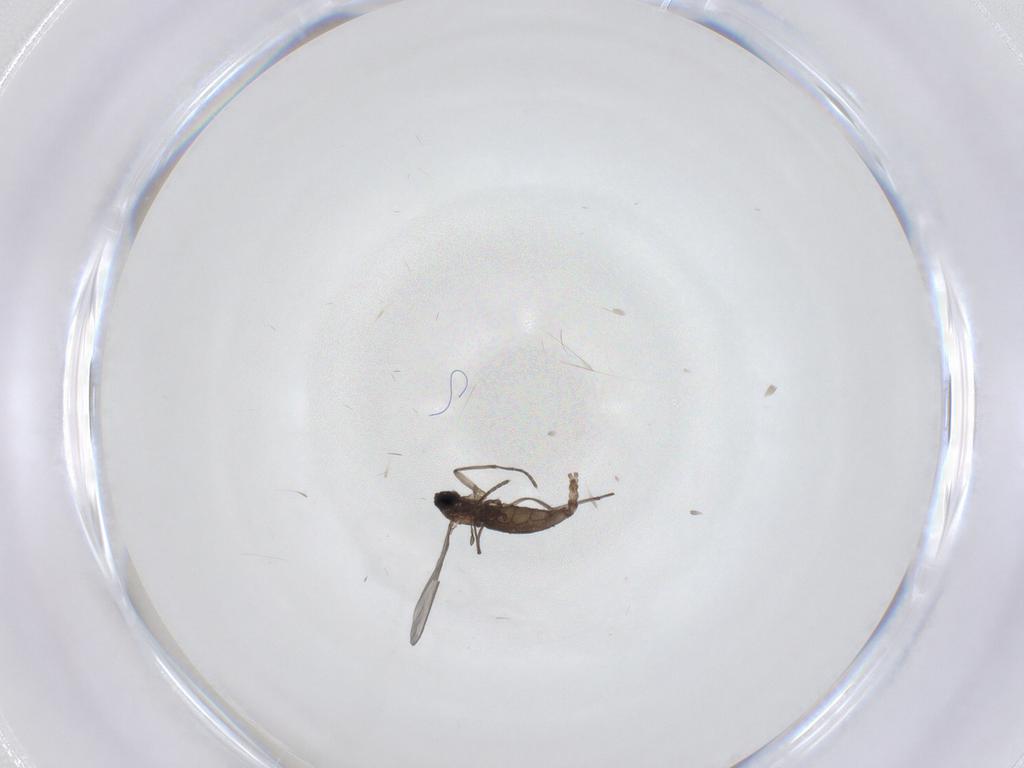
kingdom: Animalia
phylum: Arthropoda
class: Insecta
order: Diptera
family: Sciaridae
